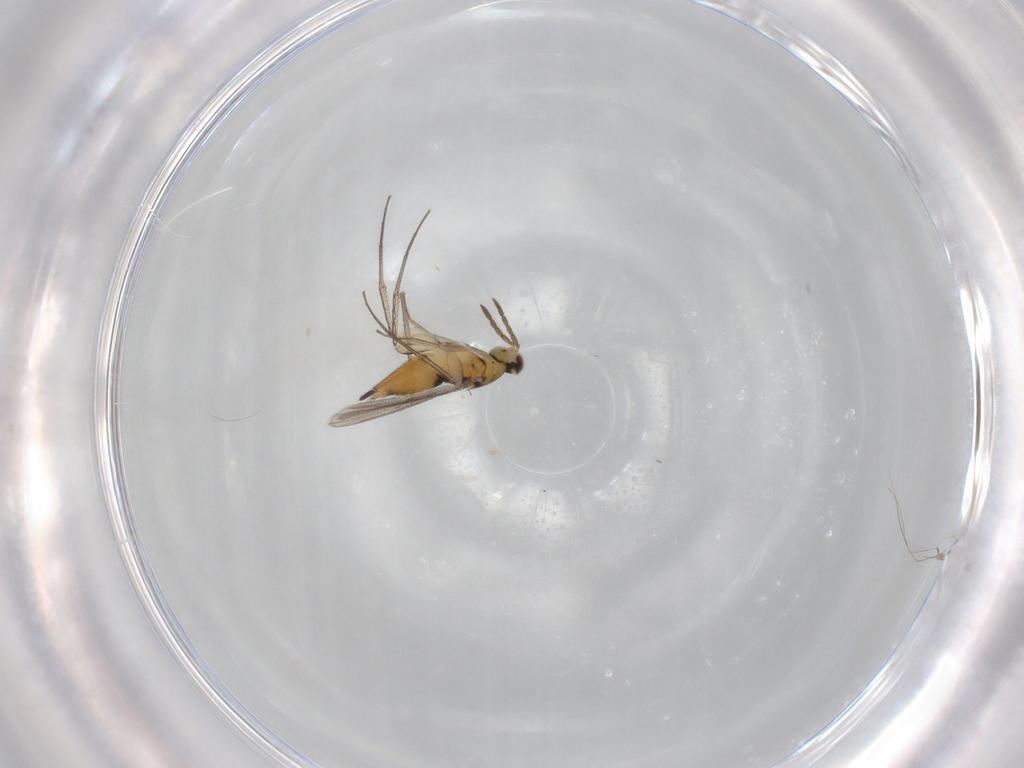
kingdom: Animalia
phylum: Arthropoda
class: Insecta
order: Hymenoptera
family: Eulophidae
